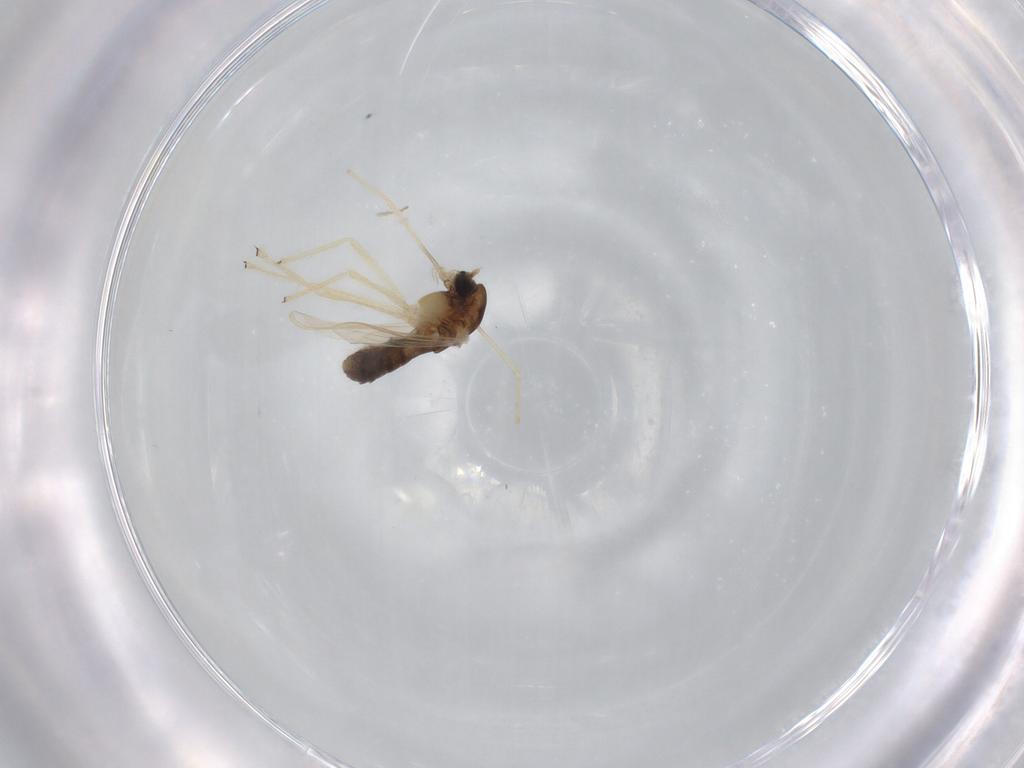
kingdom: Animalia
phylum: Arthropoda
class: Insecta
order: Diptera
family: Chironomidae
